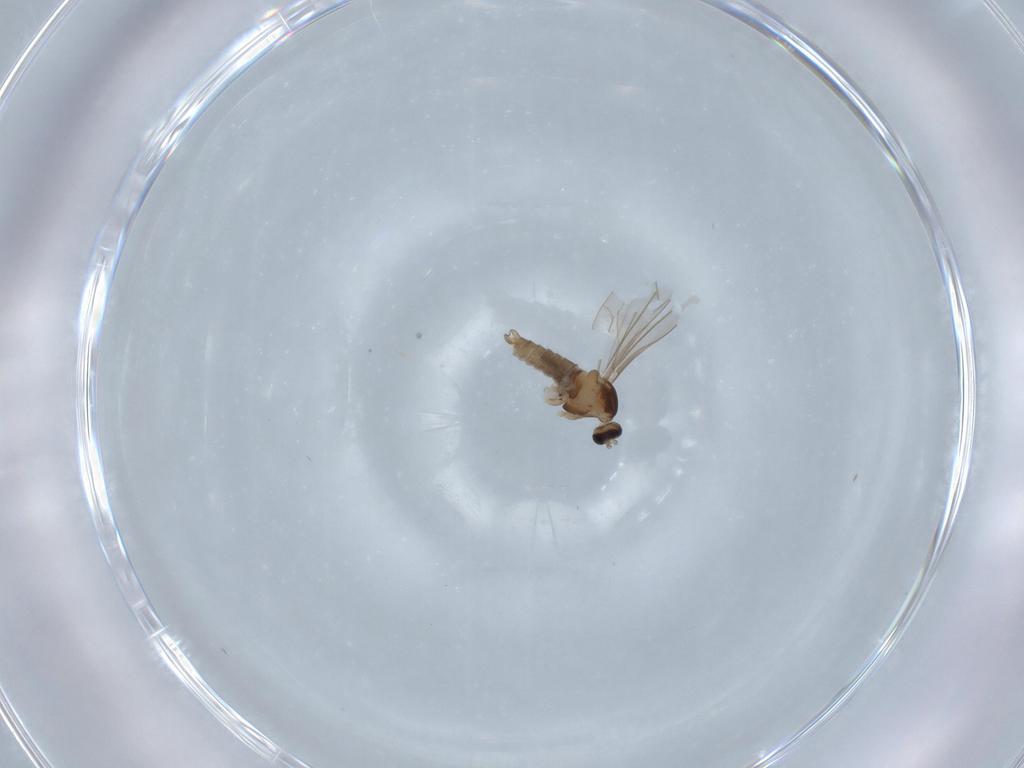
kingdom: Animalia
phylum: Arthropoda
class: Insecta
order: Diptera
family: Cecidomyiidae
